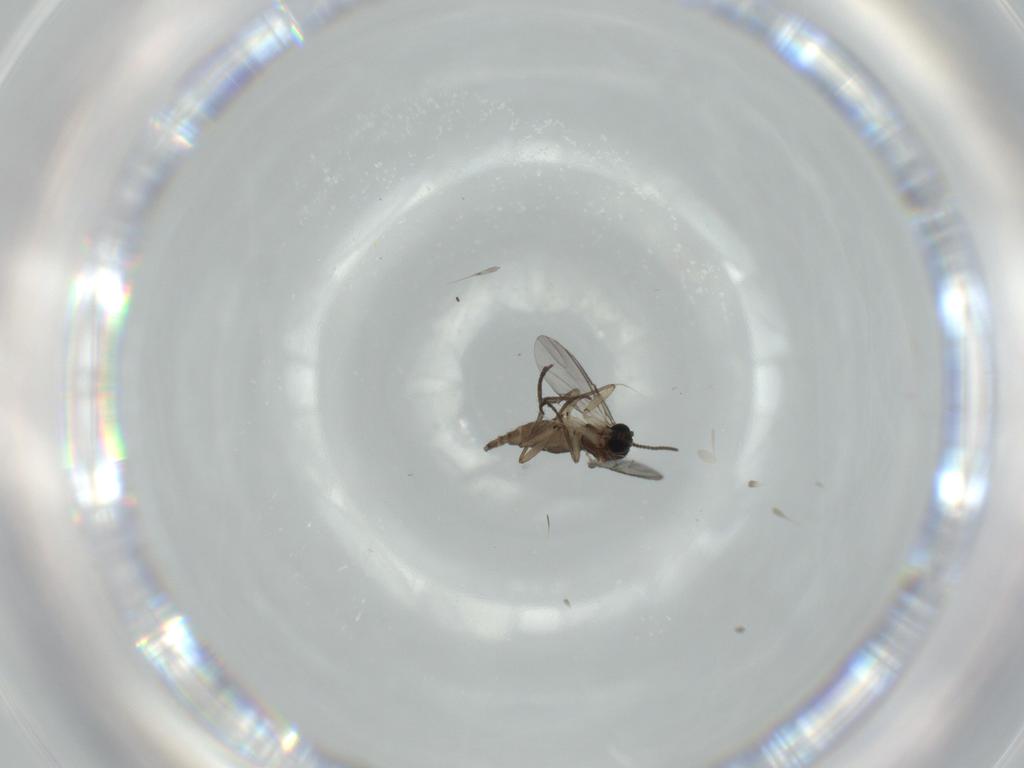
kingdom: Animalia
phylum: Arthropoda
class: Insecta
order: Diptera
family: Sciaridae
